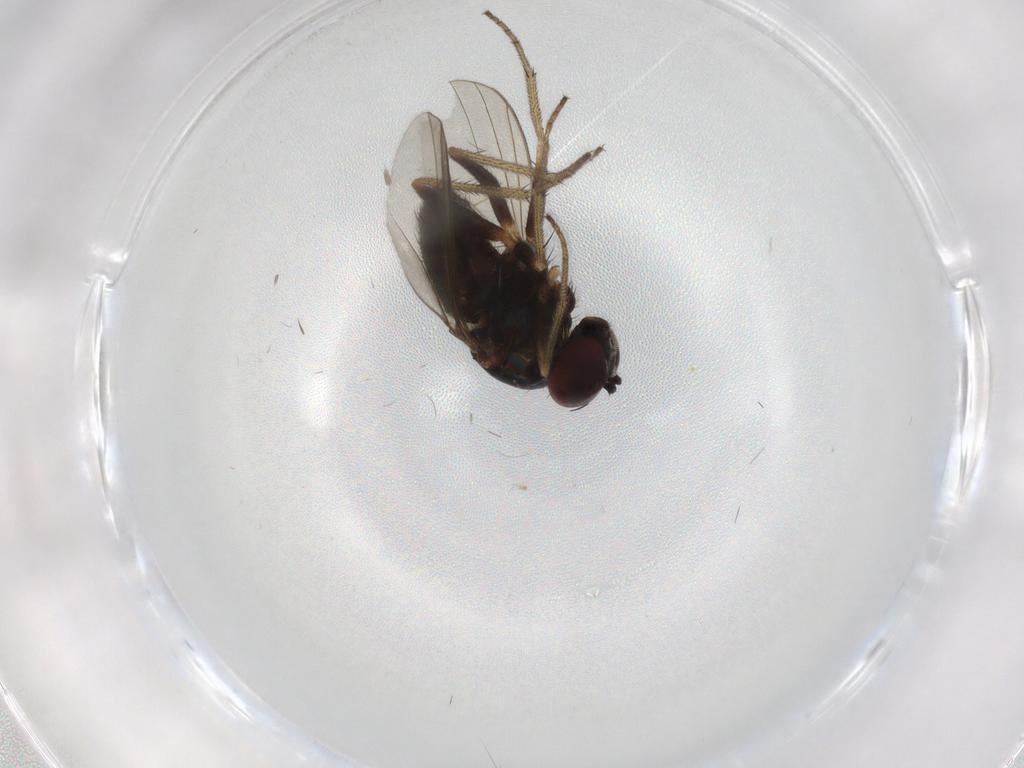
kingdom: Animalia
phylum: Arthropoda
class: Insecta
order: Diptera
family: Dolichopodidae
